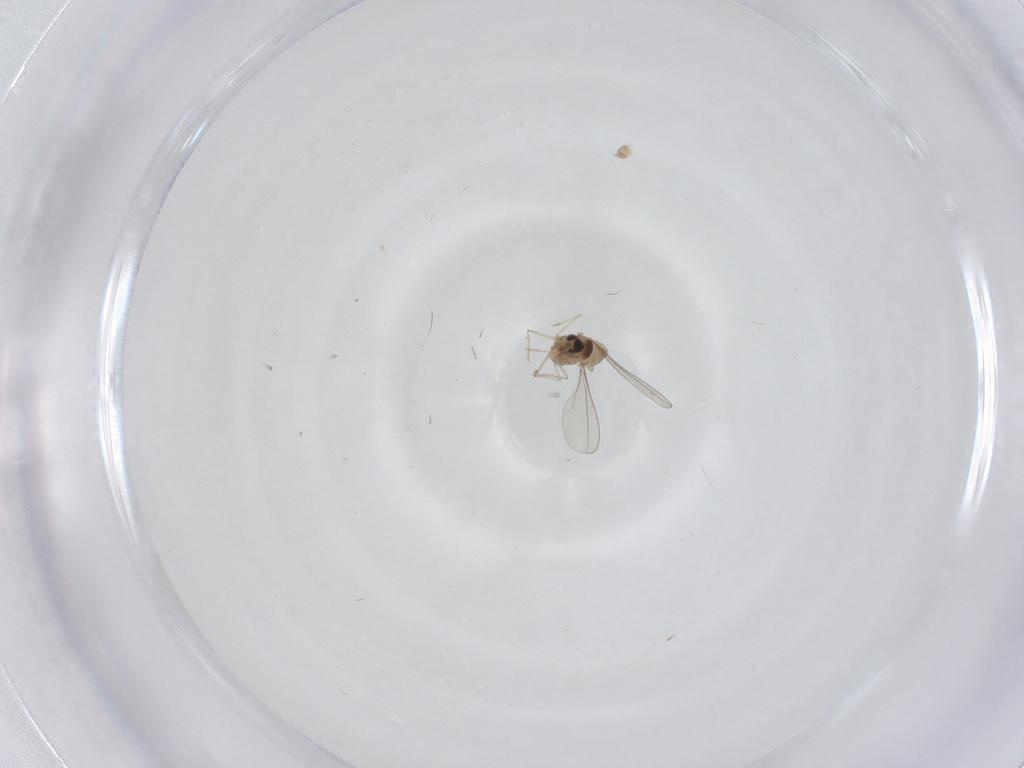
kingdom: Animalia
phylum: Arthropoda
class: Insecta
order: Diptera
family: Cecidomyiidae
